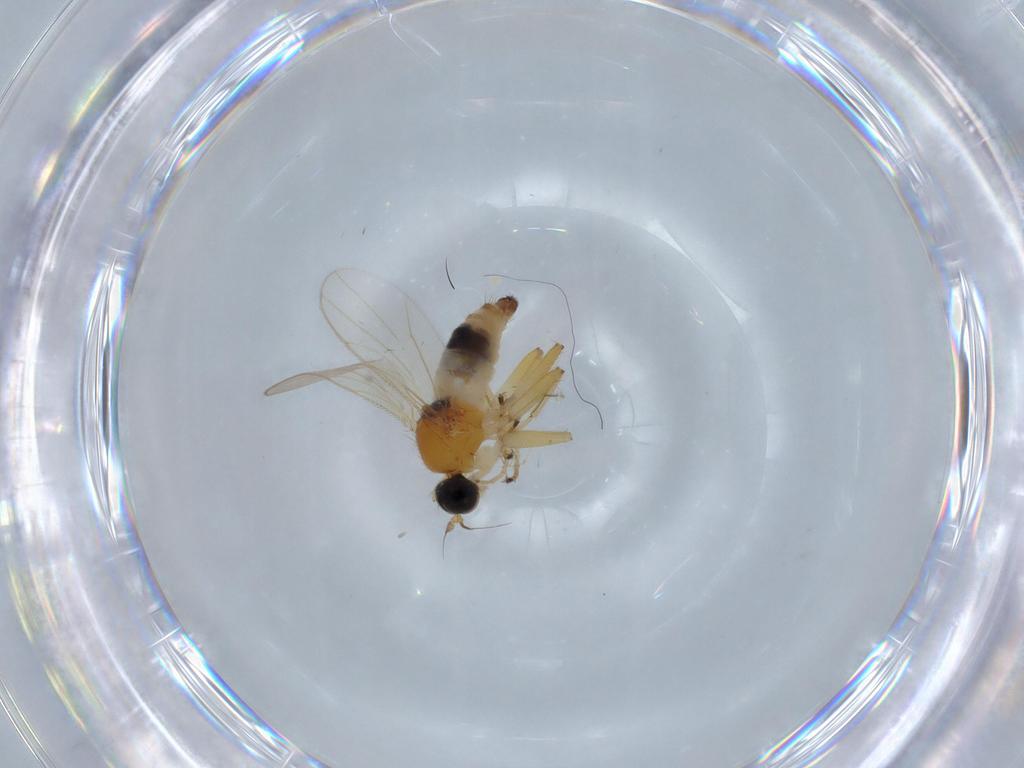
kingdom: Animalia
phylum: Arthropoda
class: Insecta
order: Diptera
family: Hybotidae
